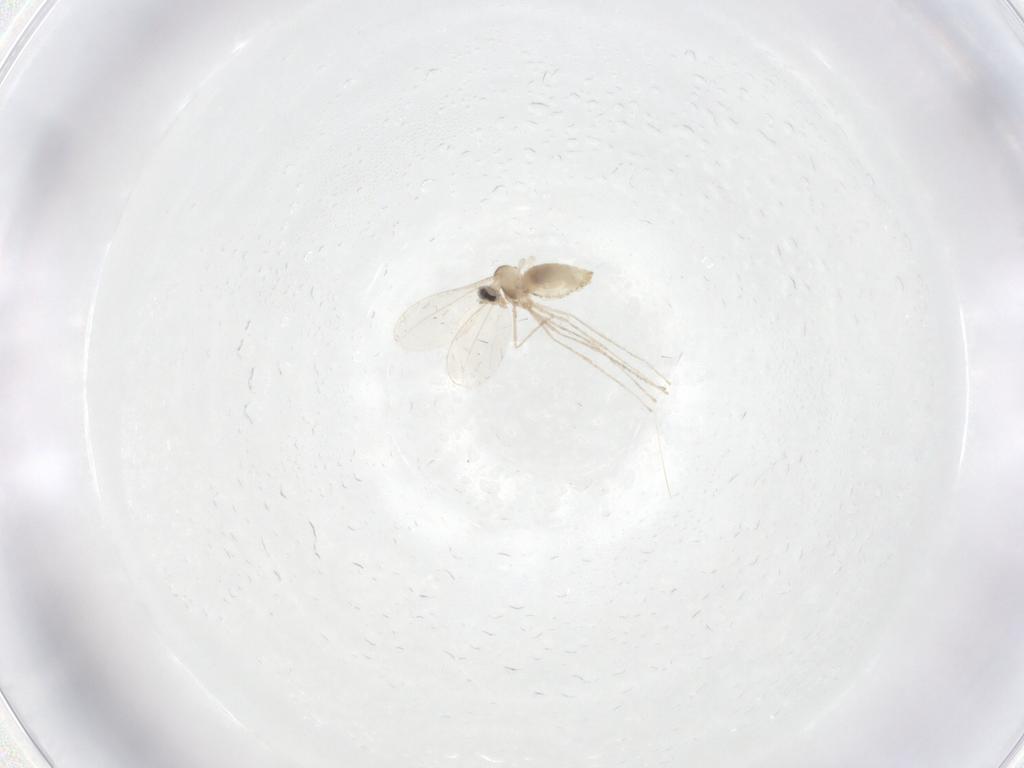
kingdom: Animalia
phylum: Arthropoda
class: Insecta
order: Diptera
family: Cecidomyiidae
